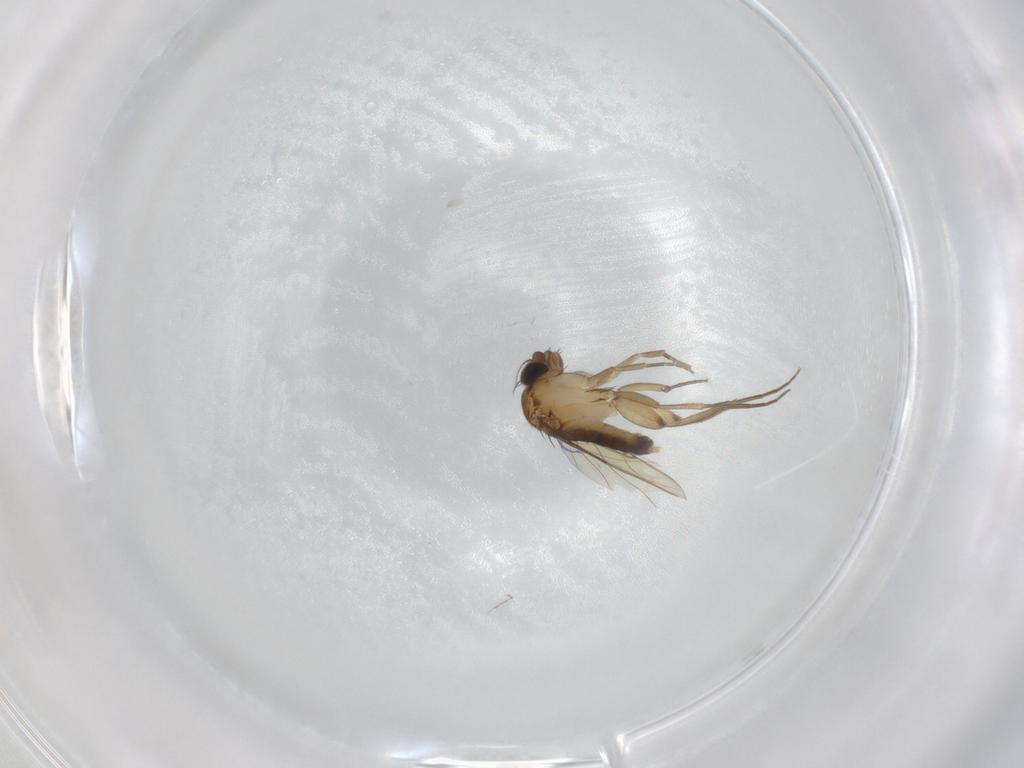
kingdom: Animalia
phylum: Arthropoda
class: Insecta
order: Diptera
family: Phoridae
